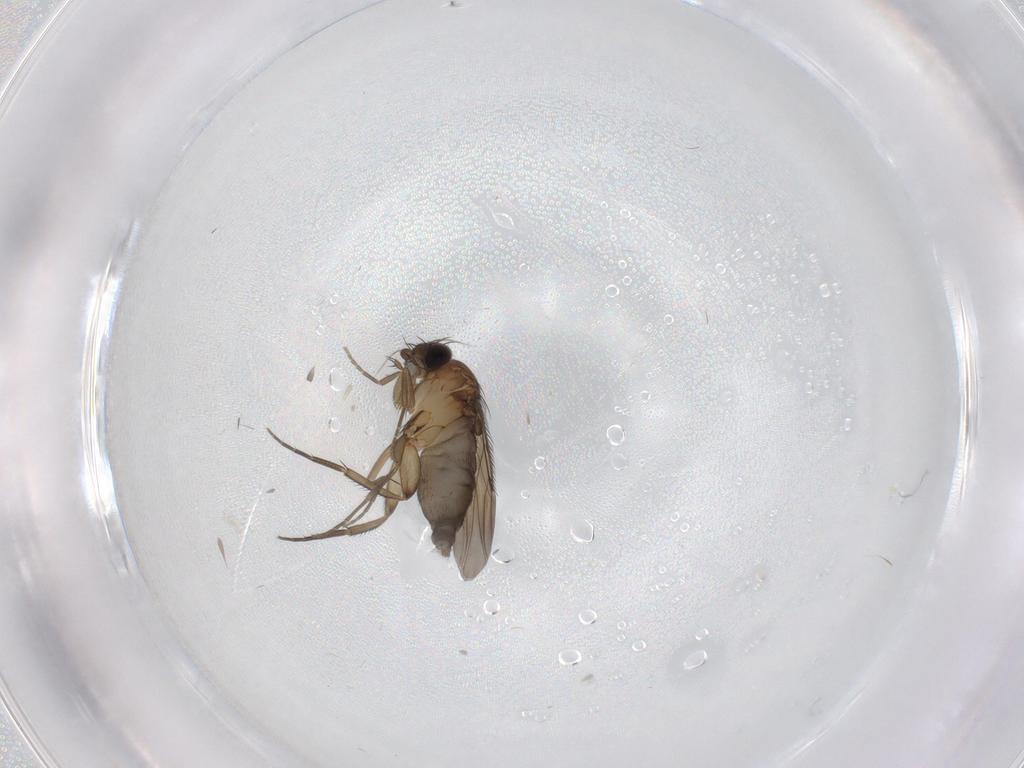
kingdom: Animalia
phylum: Arthropoda
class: Insecta
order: Diptera
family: Phoridae
